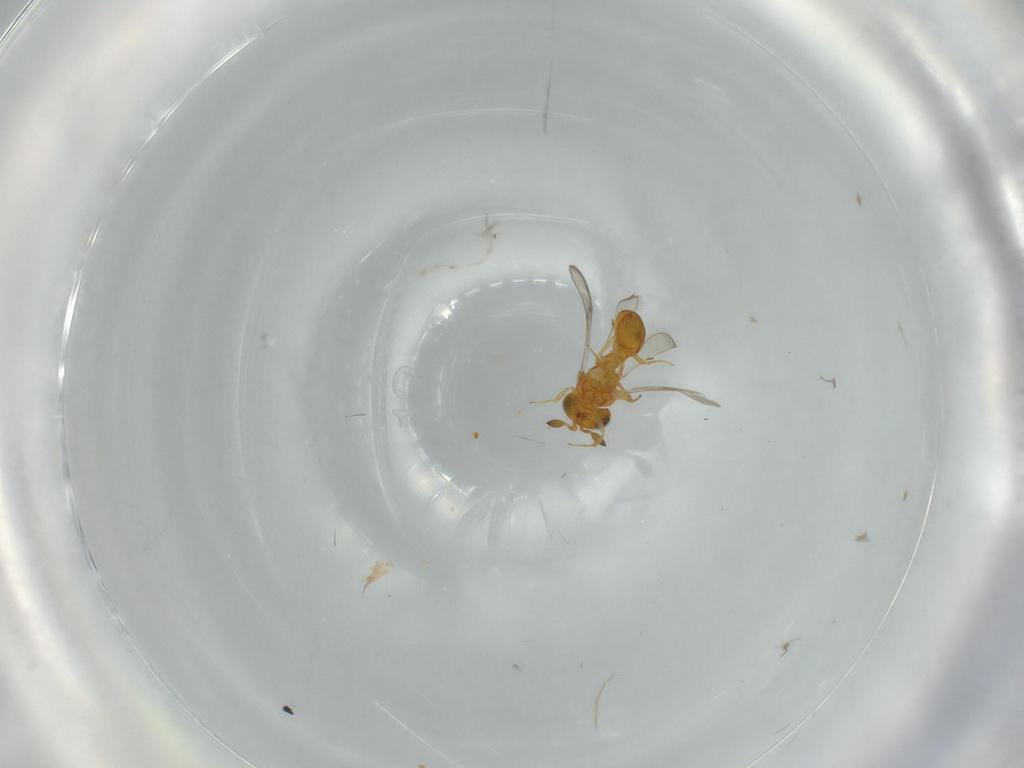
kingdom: Animalia
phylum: Arthropoda
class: Insecta
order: Hymenoptera
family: Scelionidae
